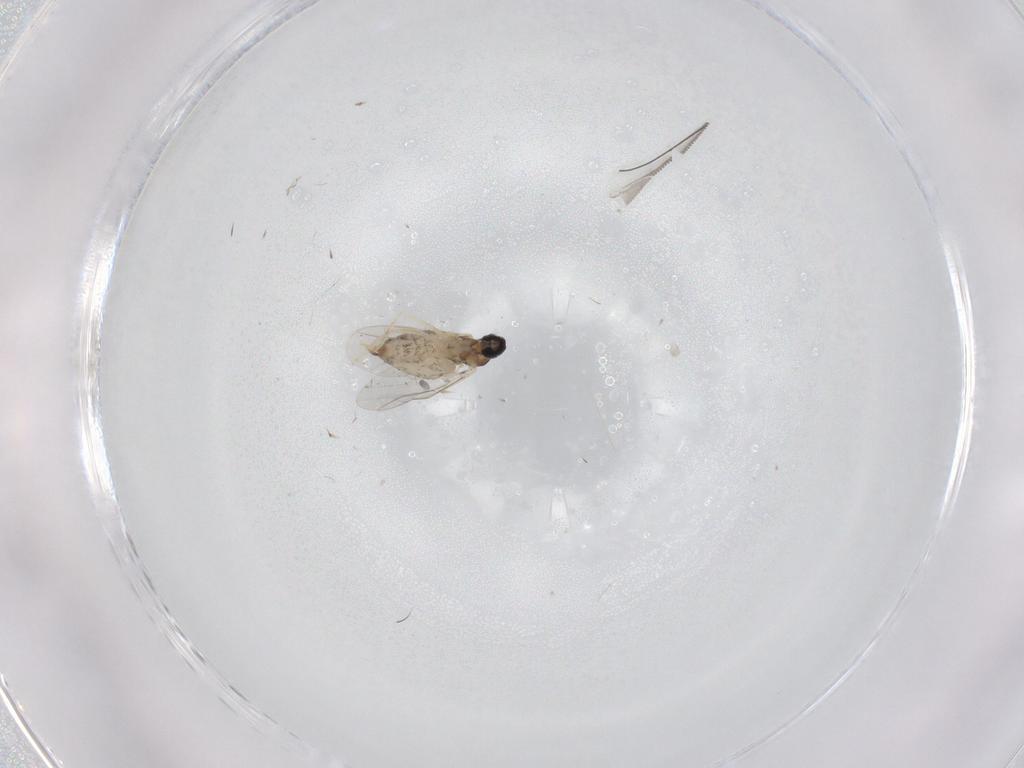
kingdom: Animalia
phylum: Arthropoda
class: Insecta
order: Diptera
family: Cecidomyiidae
